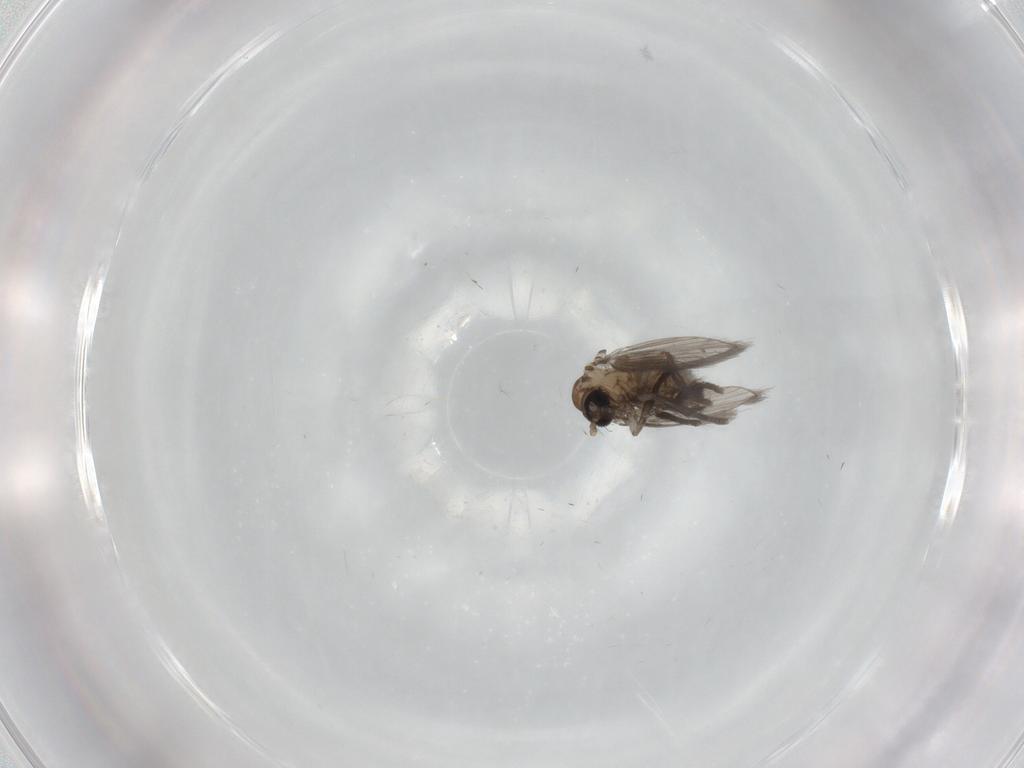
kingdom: Animalia
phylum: Arthropoda
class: Insecta
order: Diptera
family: Psychodidae
